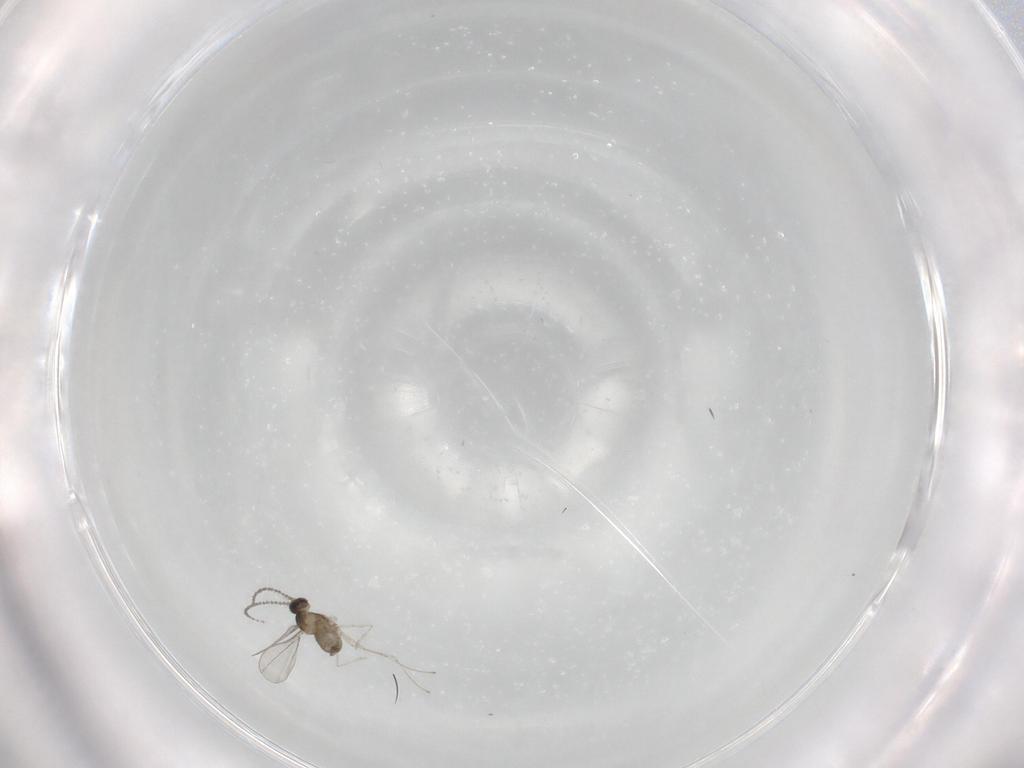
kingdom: Animalia
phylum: Arthropoda
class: Insecta
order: Diptera
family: Cecidomyiidae
